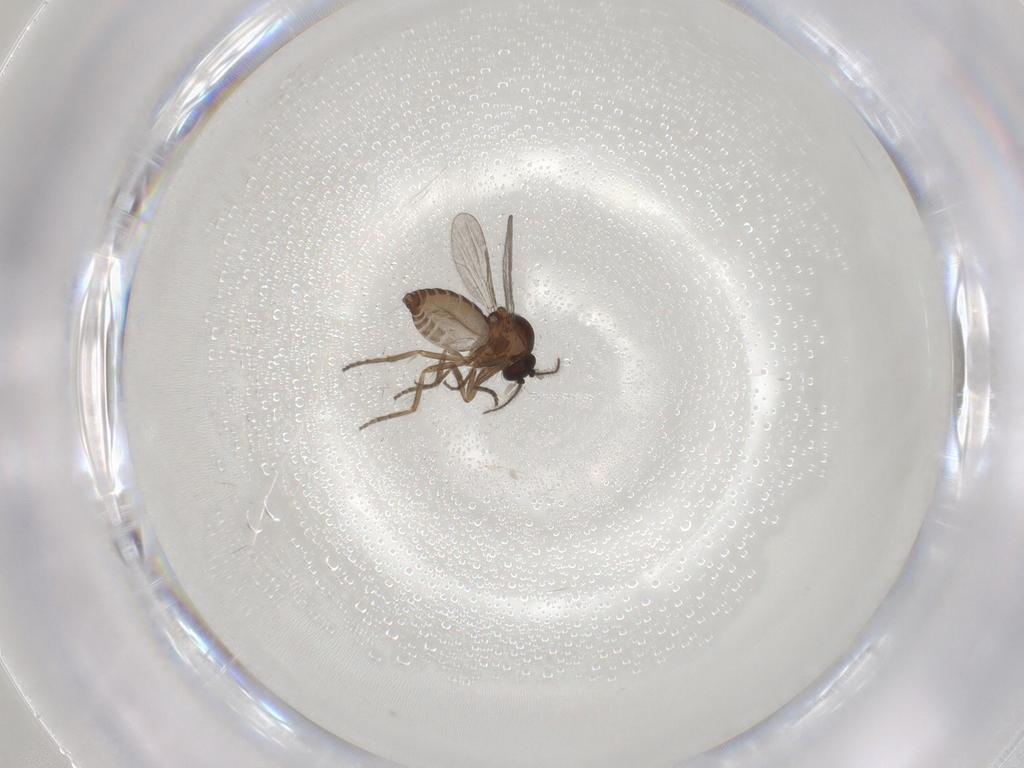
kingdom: Animalia
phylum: Arthropoda
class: Insecta
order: Diptera
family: Ceratopogonidae
